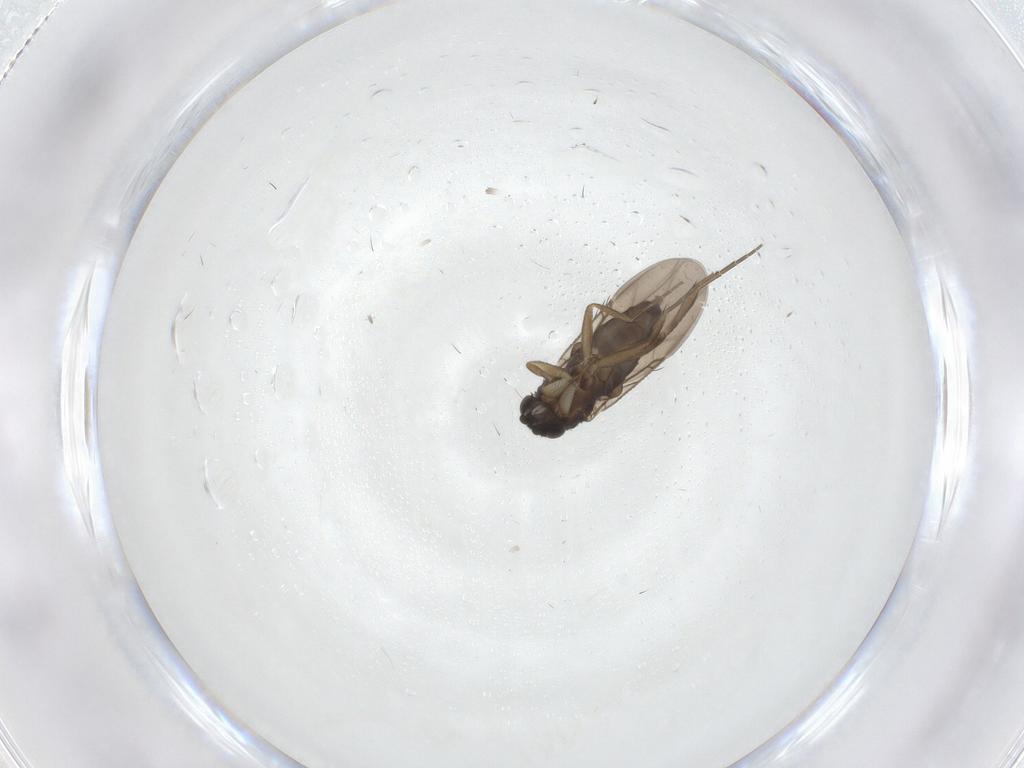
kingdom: Animalia
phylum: Arthropoda
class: Insecta
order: Diptera
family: Phoridae
